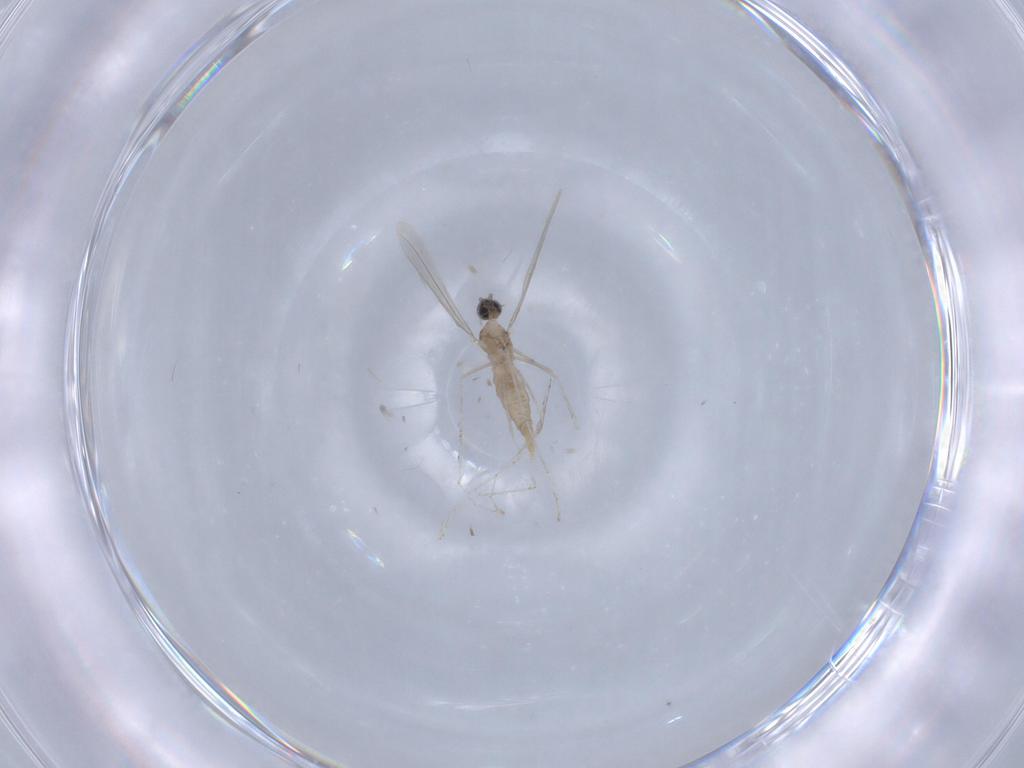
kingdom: Animalia
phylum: Arthropoda
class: Insecta
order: Diptera
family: Cecidomyiidae
